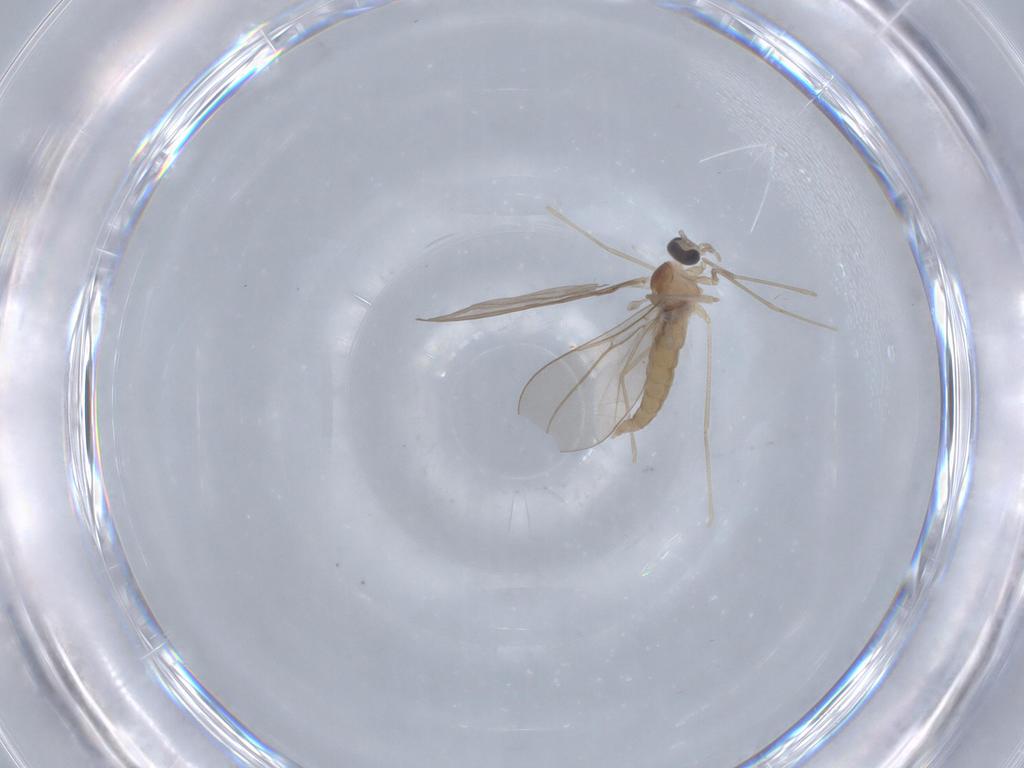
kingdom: Animalia
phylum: Arthropoda
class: Insecta
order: Diptera
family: Cecidomyiidae
